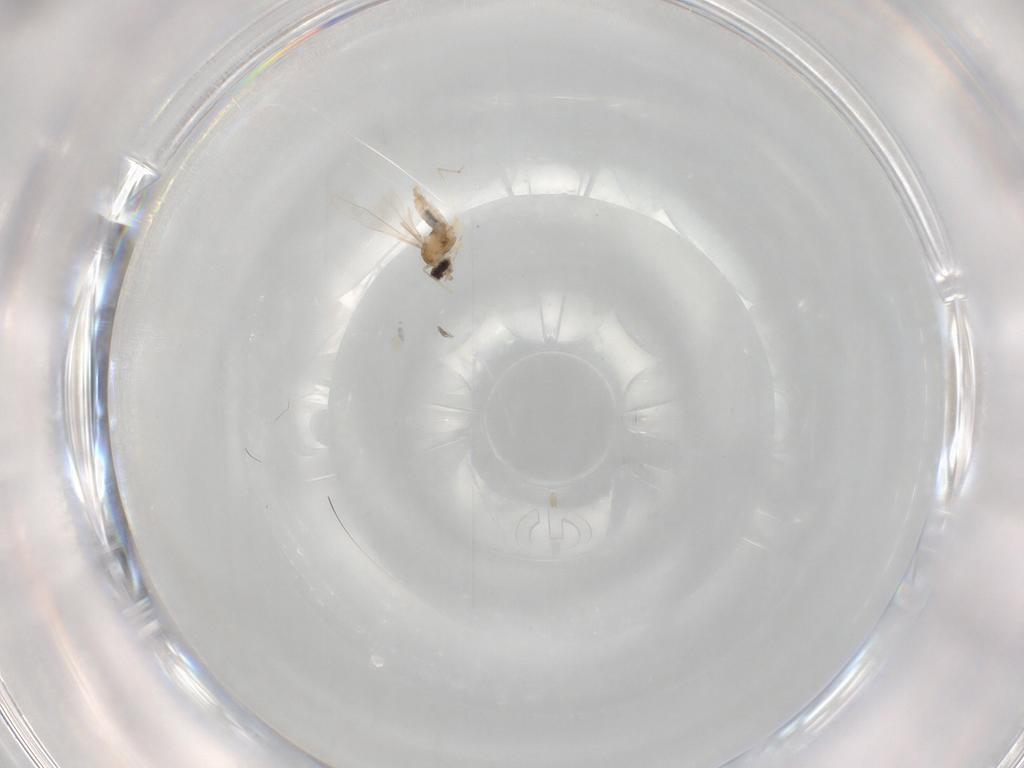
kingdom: Animalia
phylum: Arthropoda
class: Insecta
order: Diptera
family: Cecidomyiidae
